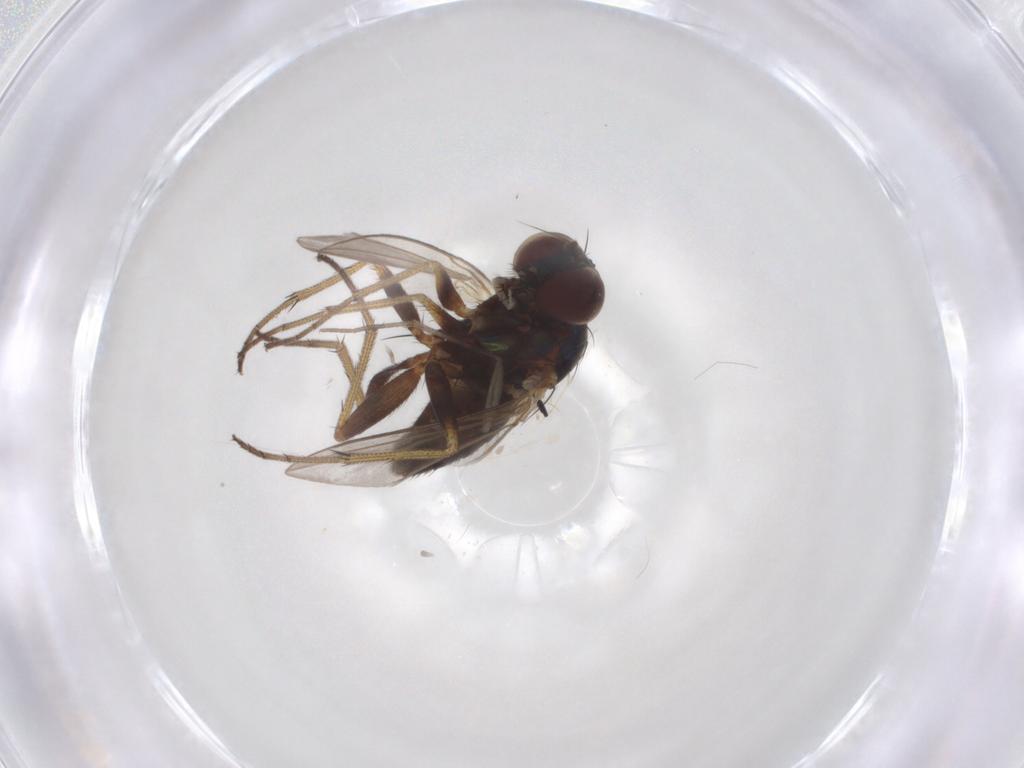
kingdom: Animalia
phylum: Arthropoda
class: Insecta
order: Diptera
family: Dolichopodidae
